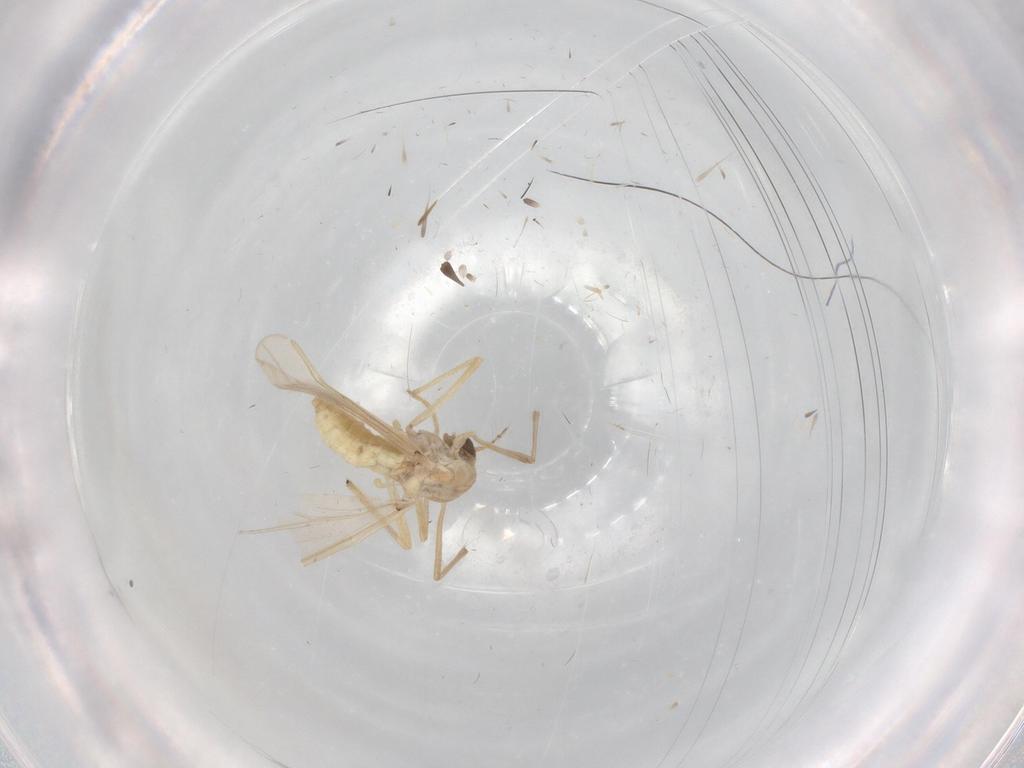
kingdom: Animalia
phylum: Arthropoda
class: Insecta
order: Diptera
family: Chironomidae
